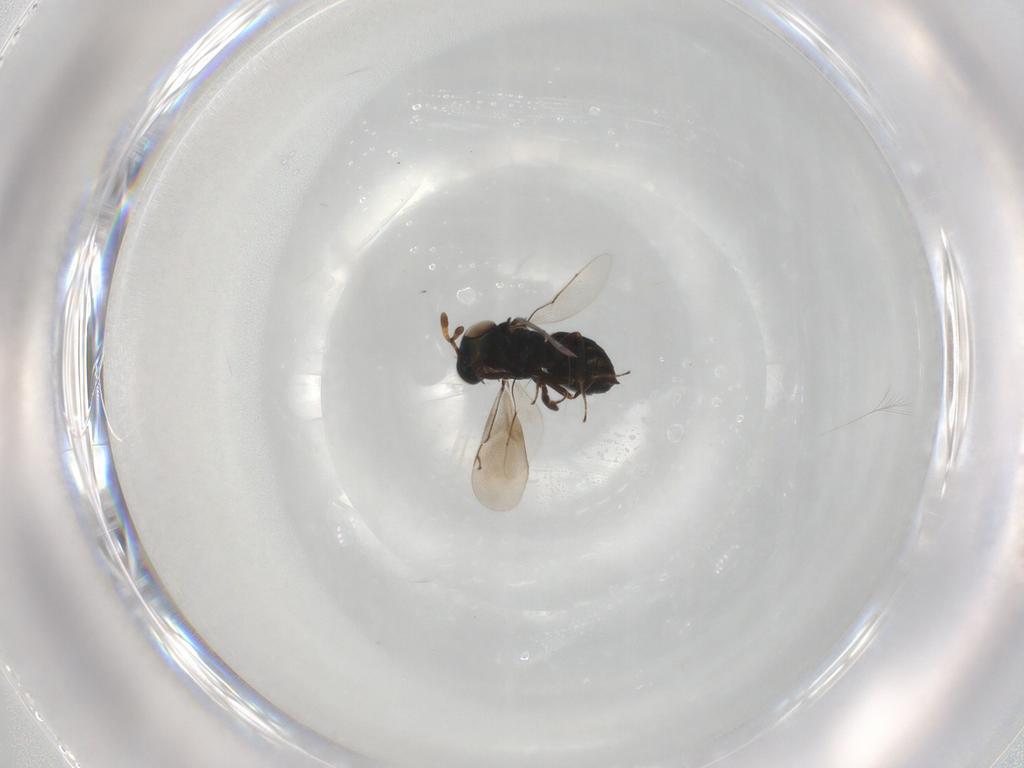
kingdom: Animalia
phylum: Arthropoda
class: Insecta
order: Hymenoptera
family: Eunotidae
